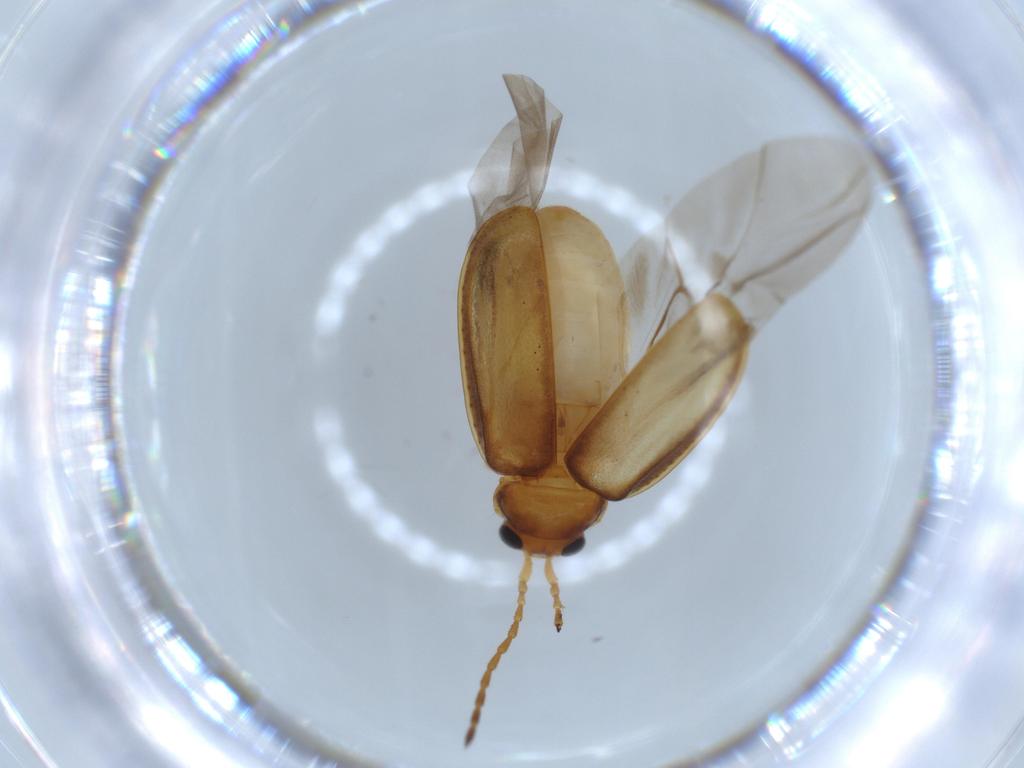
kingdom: Animalia
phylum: Arthropoda
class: Insecta
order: Coleoptera
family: Chrysomelidae
